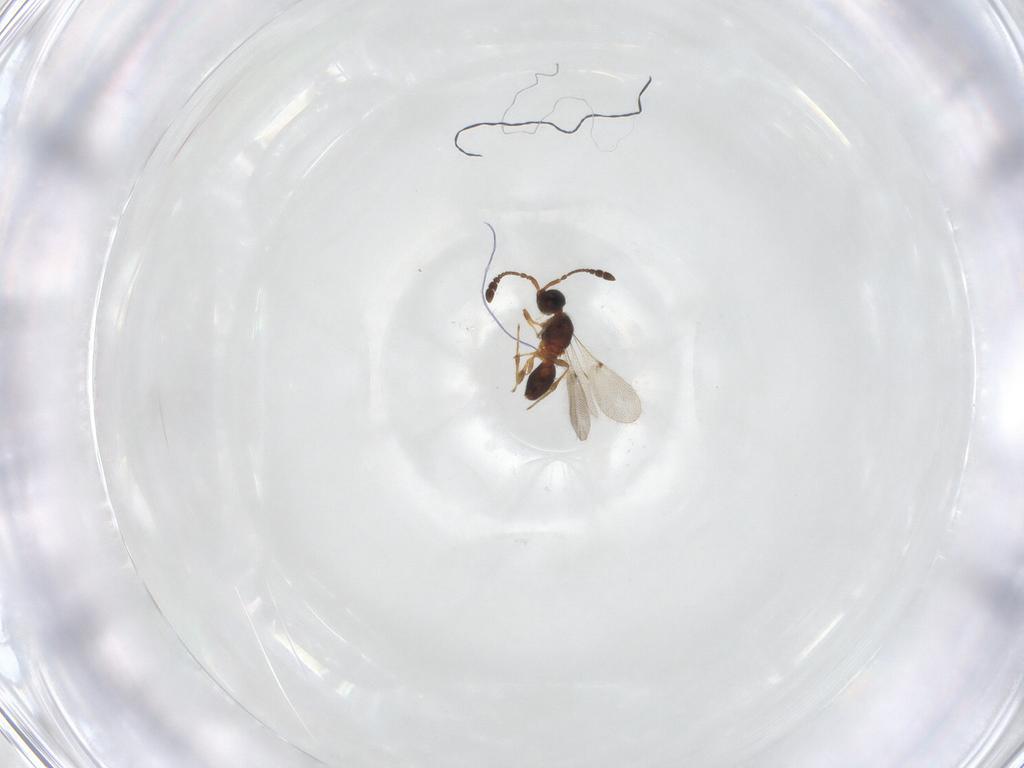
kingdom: Animalia
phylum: Arthropoda
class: Insecta
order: Hymenoptera
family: Diapriidae
